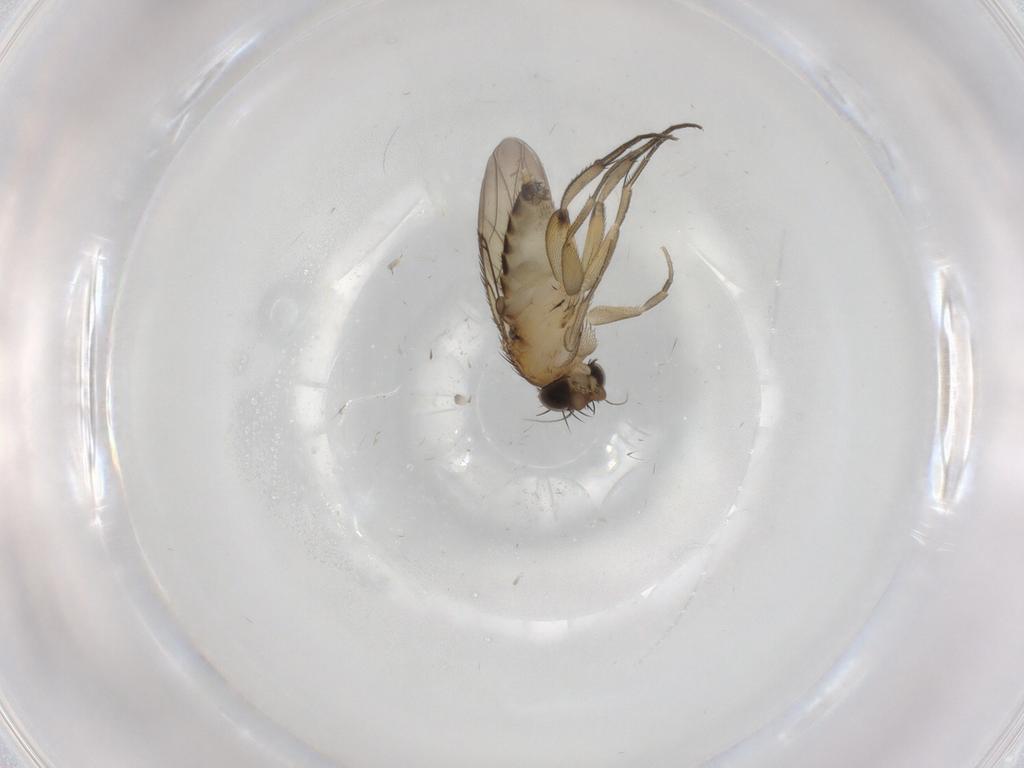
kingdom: Animalia
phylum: Arthropoda
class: Insecta
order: Diptera
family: Phoridae
